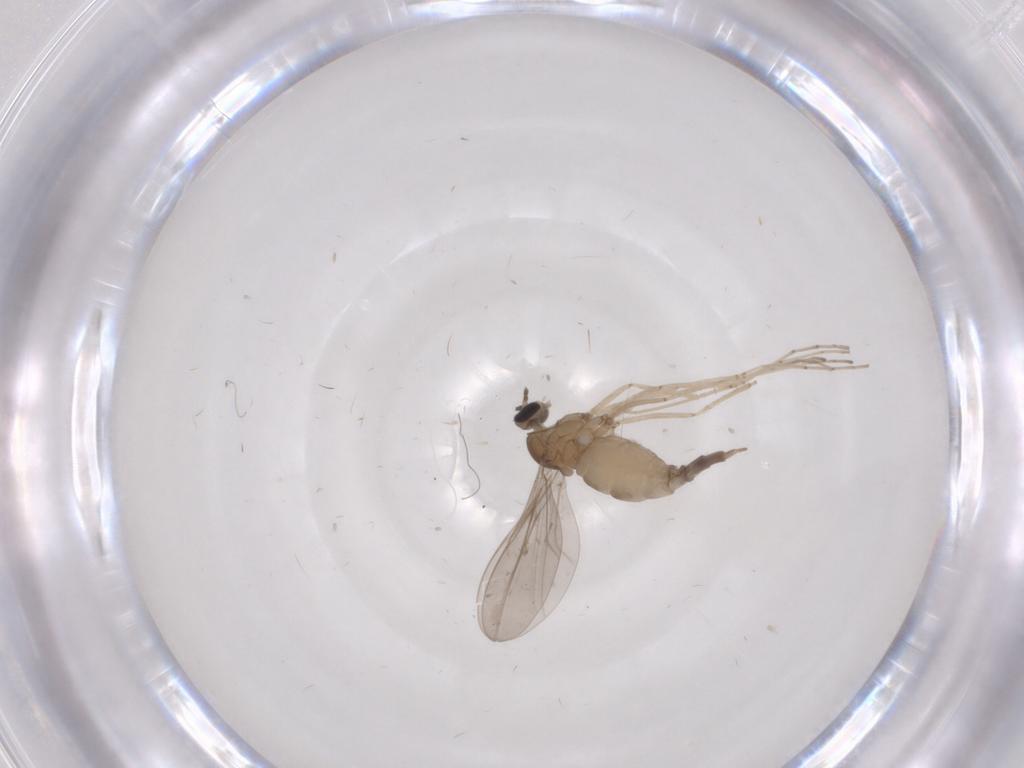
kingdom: Animalia
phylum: Arthropoda
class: Insecta
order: Diptera
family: Cecidomyiidae
